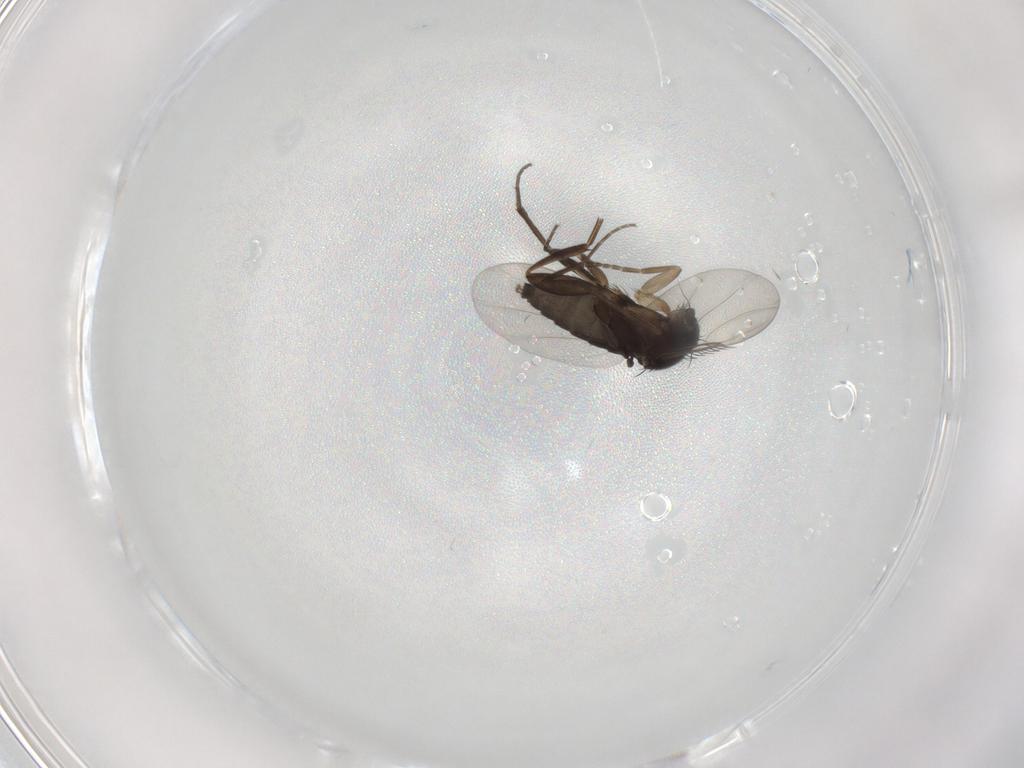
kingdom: Animalia
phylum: Arthropoda
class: Insecta
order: Diptera
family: Phoridae
